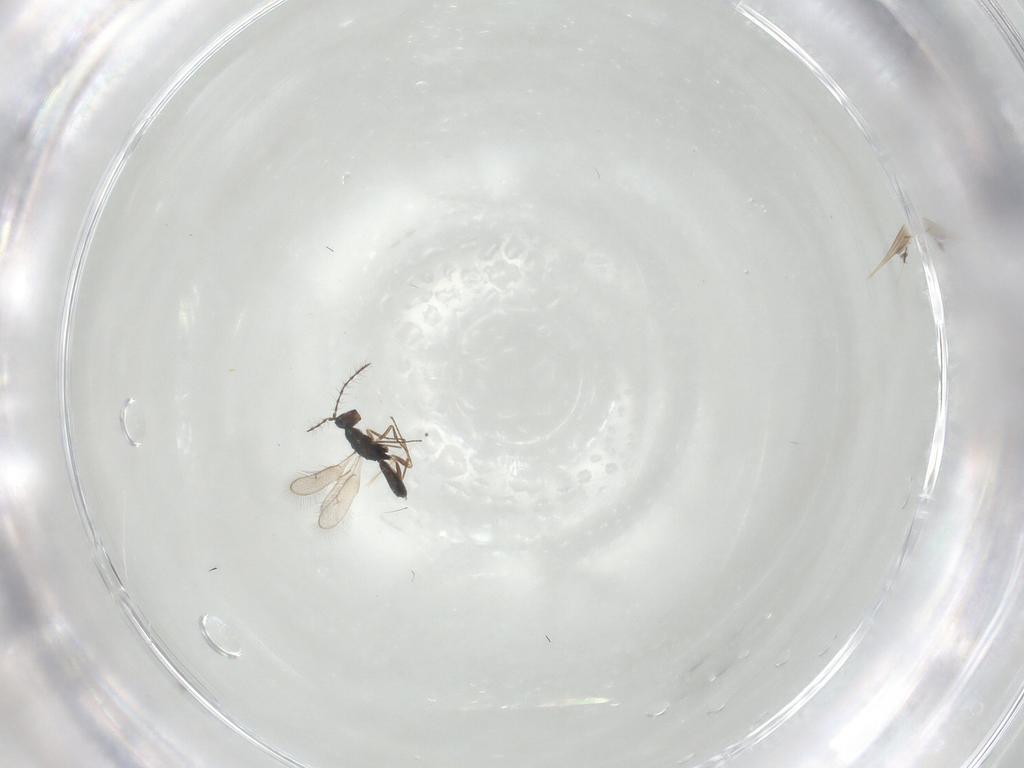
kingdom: Animalia
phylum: Arthropoda
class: Insecta
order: Hymenoptera
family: Pteromalidae
